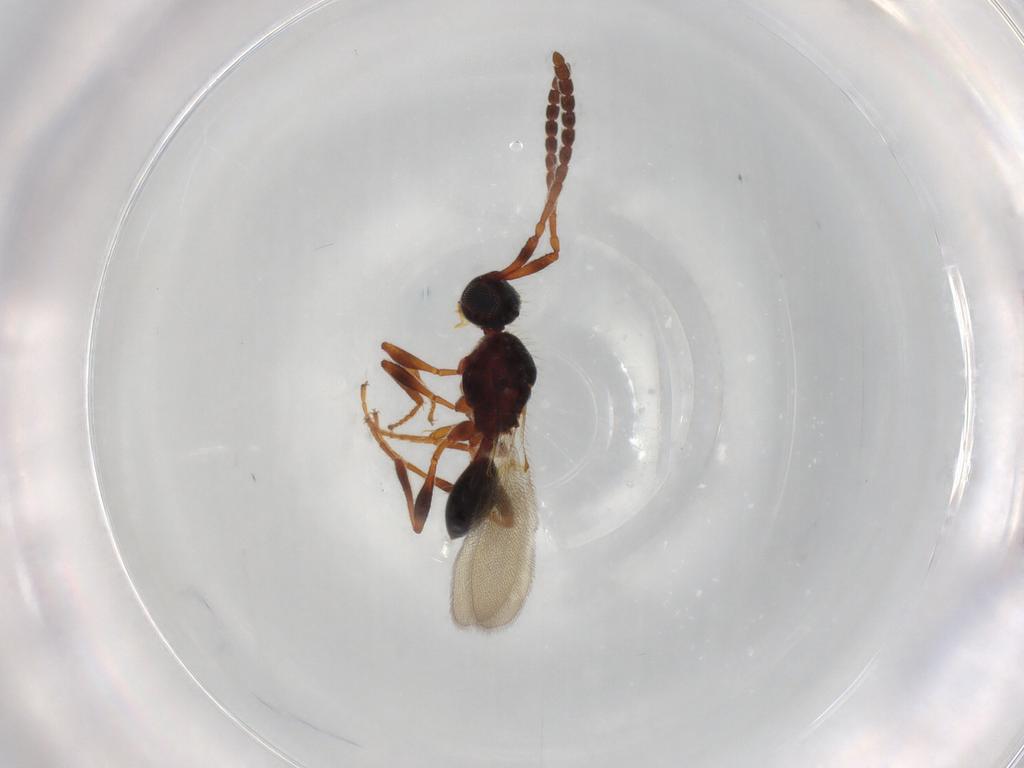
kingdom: Animalia
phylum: Arthropoda
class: Insecta
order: Hymenoptera
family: Diapriidae
